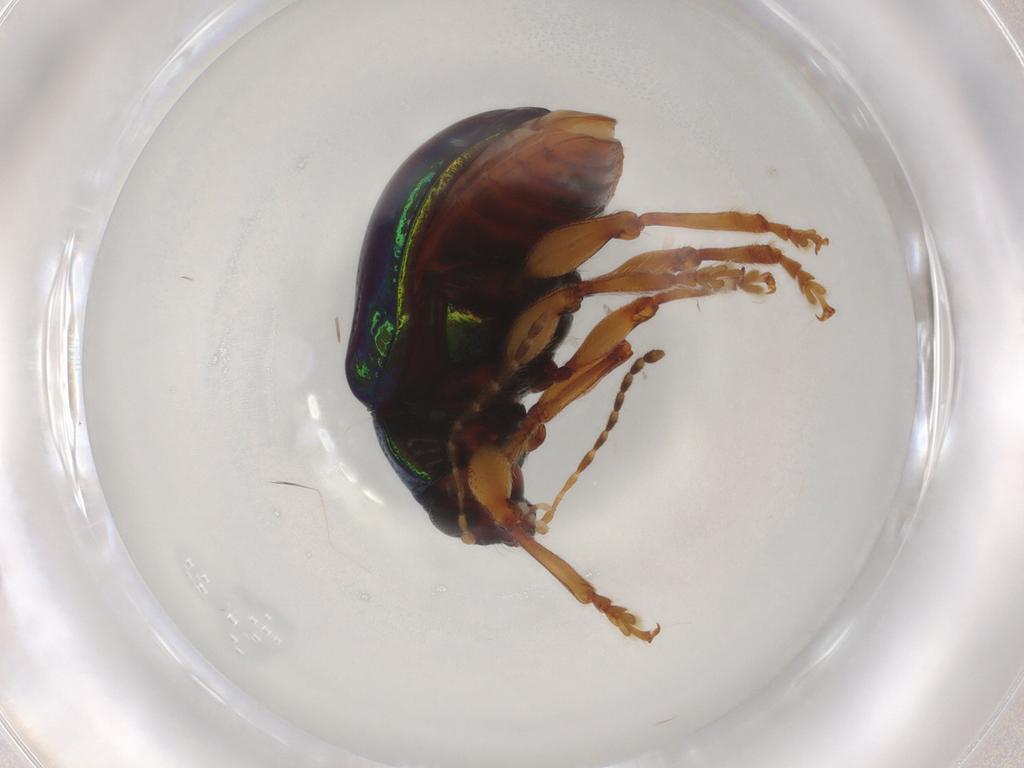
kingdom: Animalia
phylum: Arthropoda
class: Insecta
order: Coleoptera
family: Chrysomelidae
